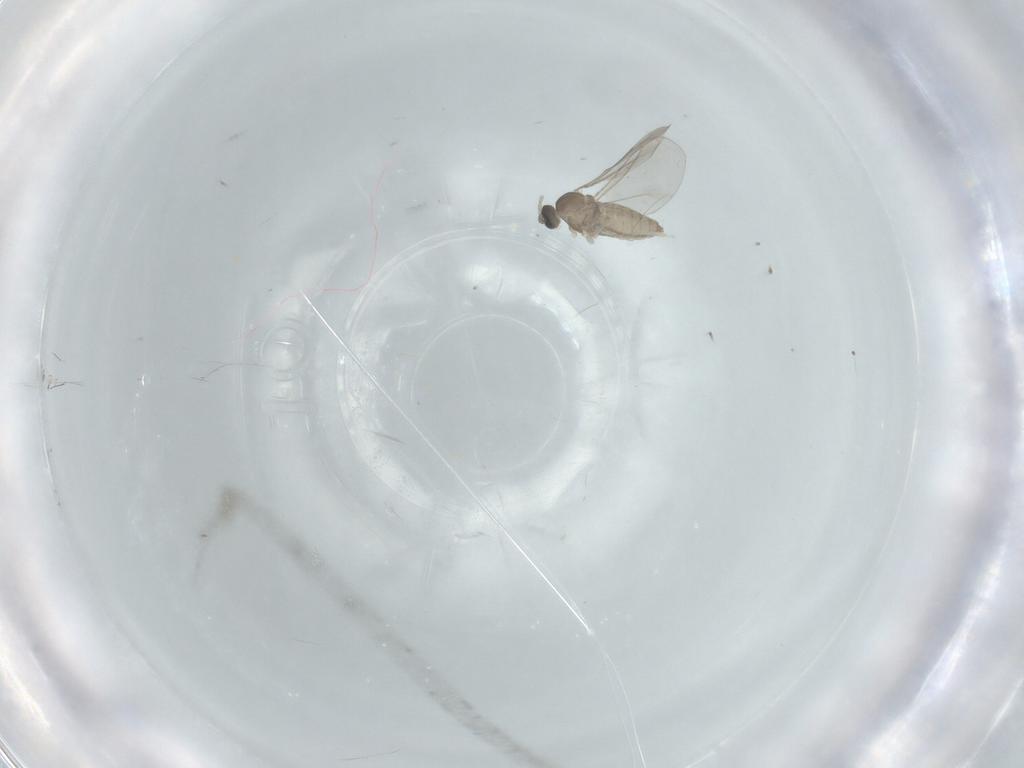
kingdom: Animalia
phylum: Arthropoda
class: Insecta
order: Diptera
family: Cecidomyiidae
